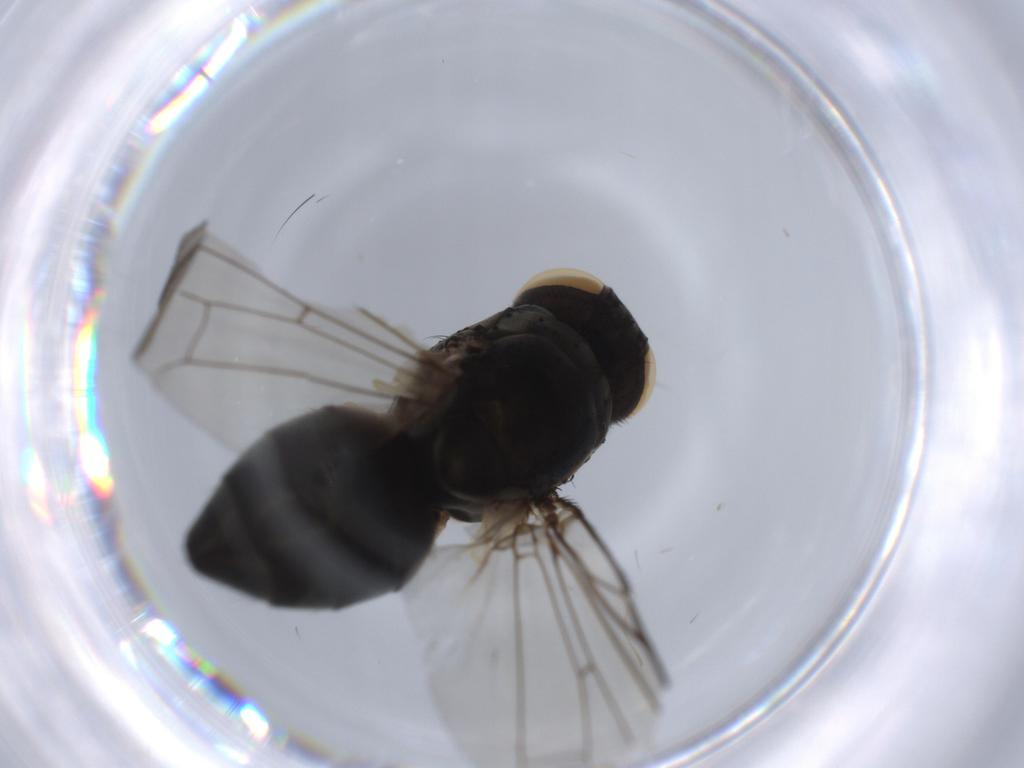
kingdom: Animalia
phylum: Arthropoda
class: Insecta
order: Diptera
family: Muscidae
